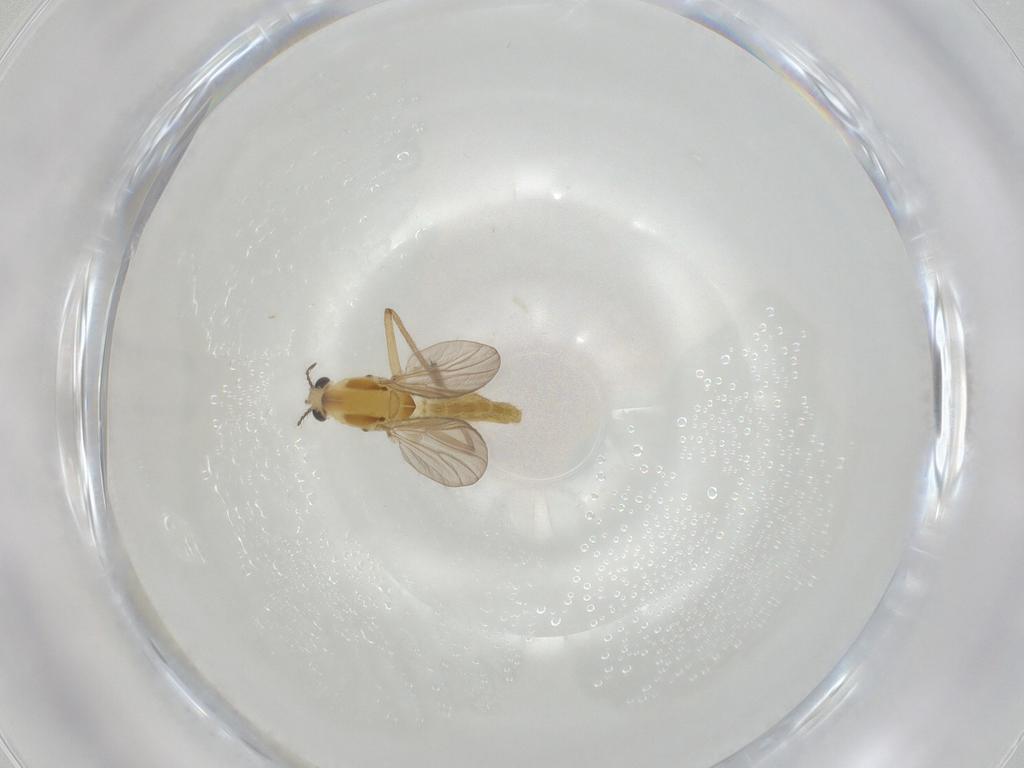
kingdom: Animalia
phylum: Arthropoda
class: Insecta
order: Diptera
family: Chironomidae
